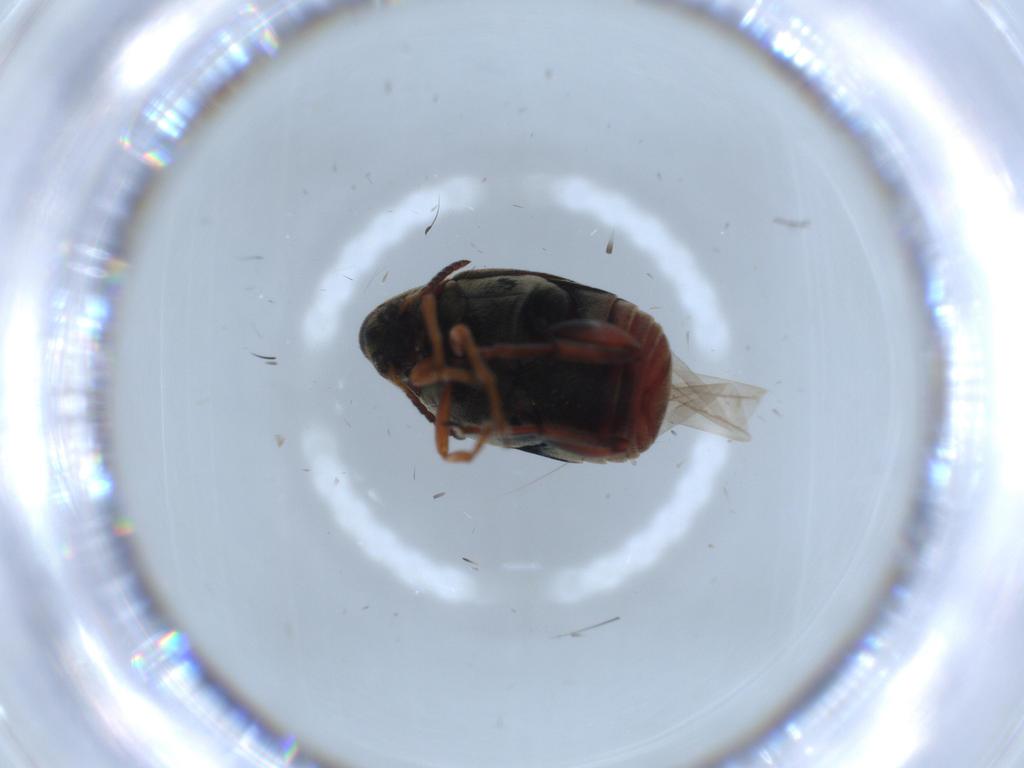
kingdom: Animalia
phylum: Arthropoda
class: Insecta
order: Coleoptera
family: Chrysomelidae
